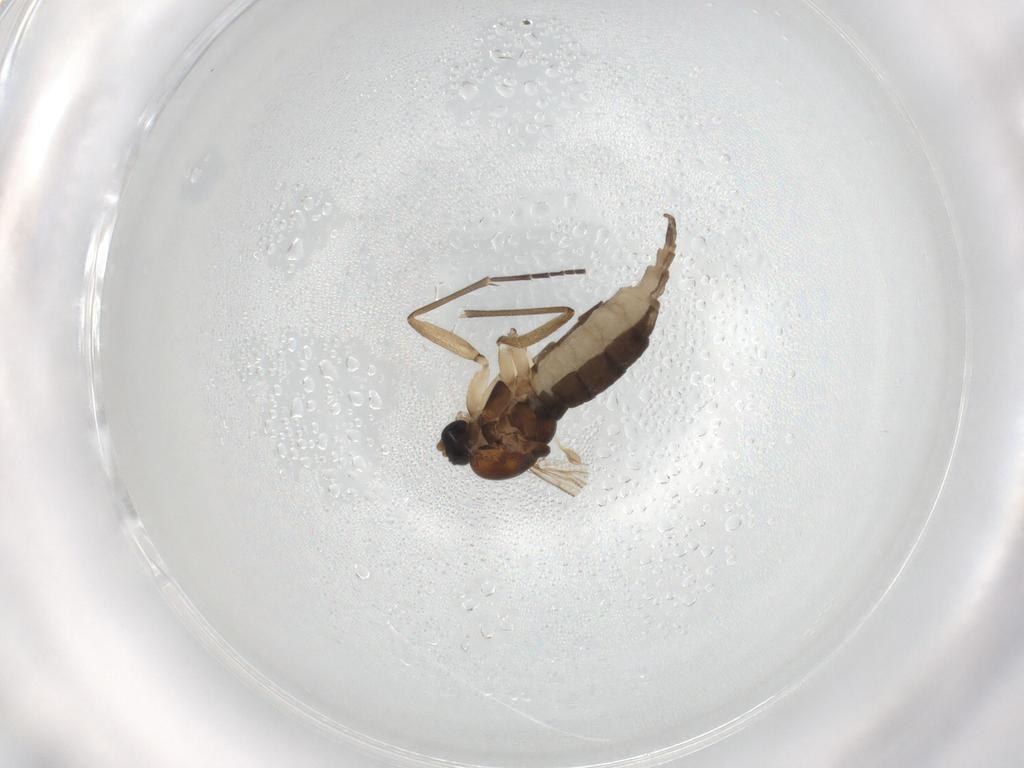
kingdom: Animalia
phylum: Arthropoda
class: Insecta
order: Diptera
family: Sciaridae
